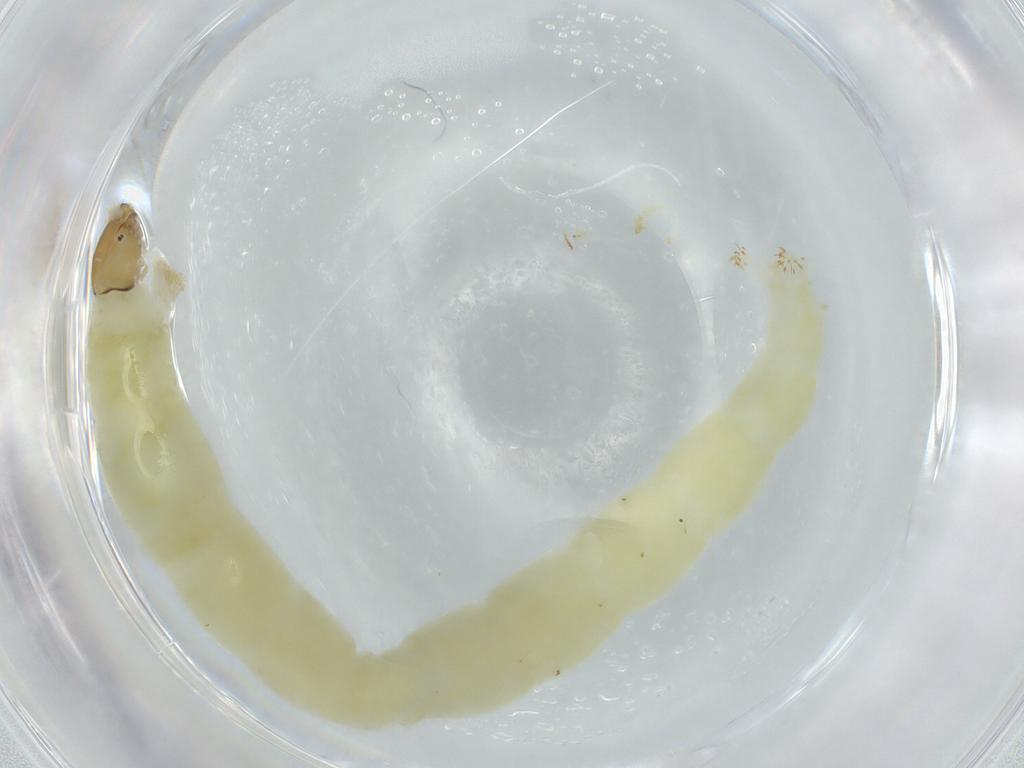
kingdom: Animalia
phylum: Arthropoda
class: Insecta
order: Diptera
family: Chironomidae
